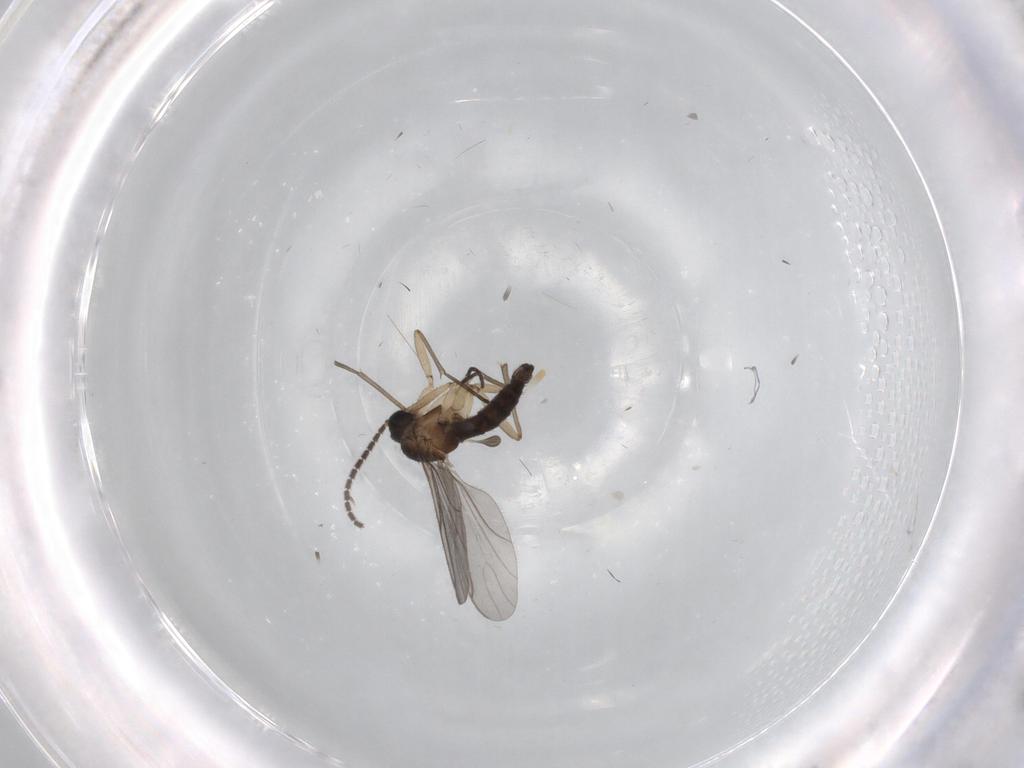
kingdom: Animalia
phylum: Arthropoda
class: Insecta
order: Diptera
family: Sciaridae
